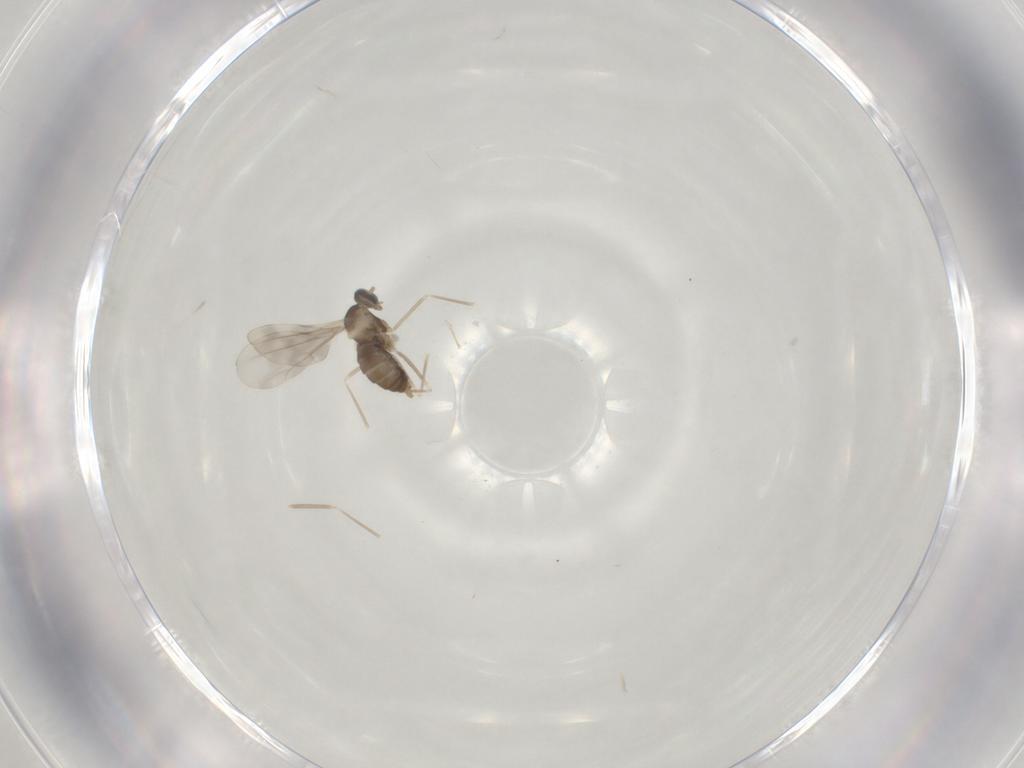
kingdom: Animalia
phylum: Arthropoda
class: Insecta
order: Diptera
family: Cecidomyiidae
